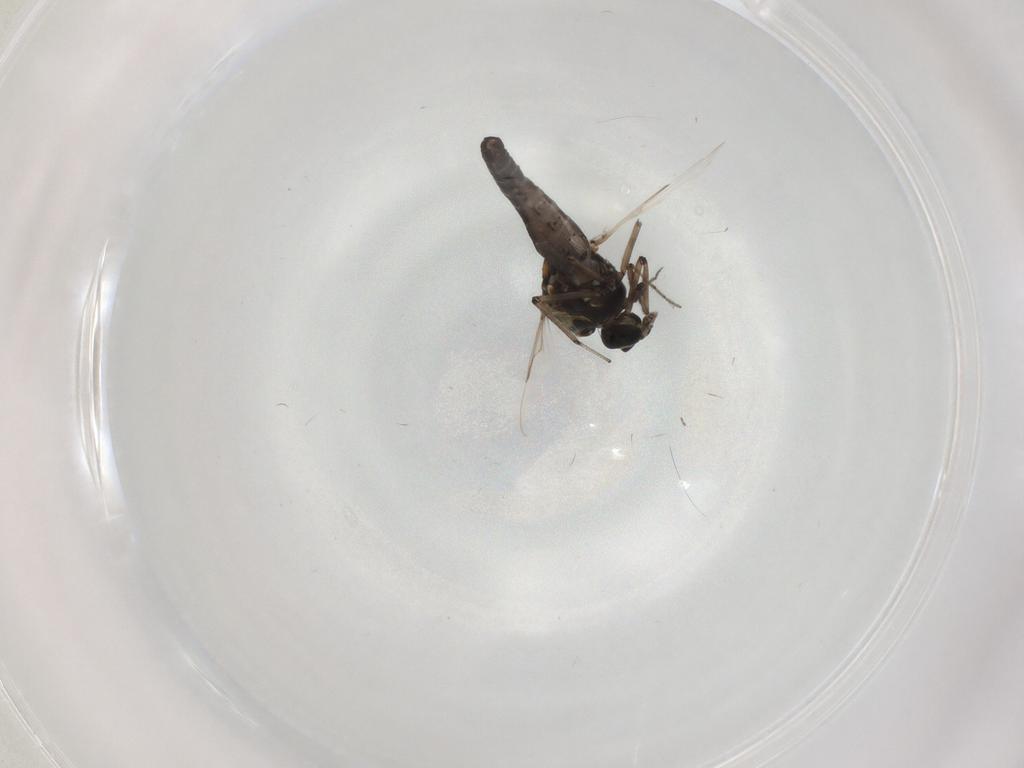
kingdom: Animalia
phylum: Arthropoda
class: Insecta
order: Diptera
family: Ceratopogonidae
